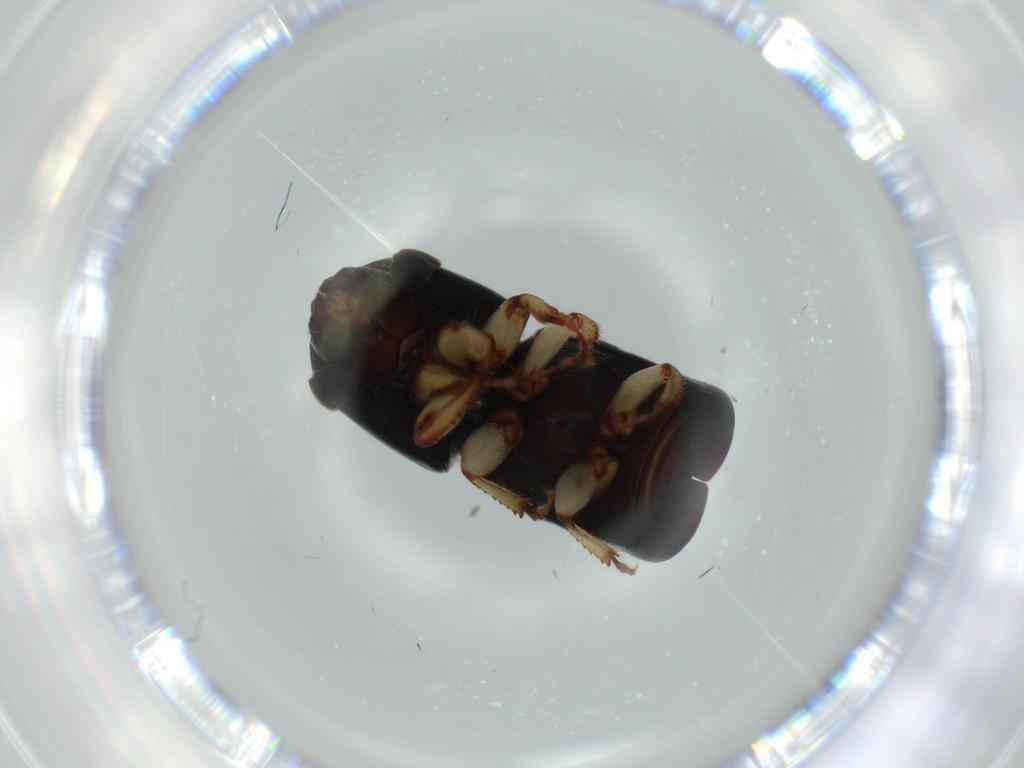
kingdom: Animalia
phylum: Arthropoda
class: Insecta
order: Coleoptera
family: Curculionidae
